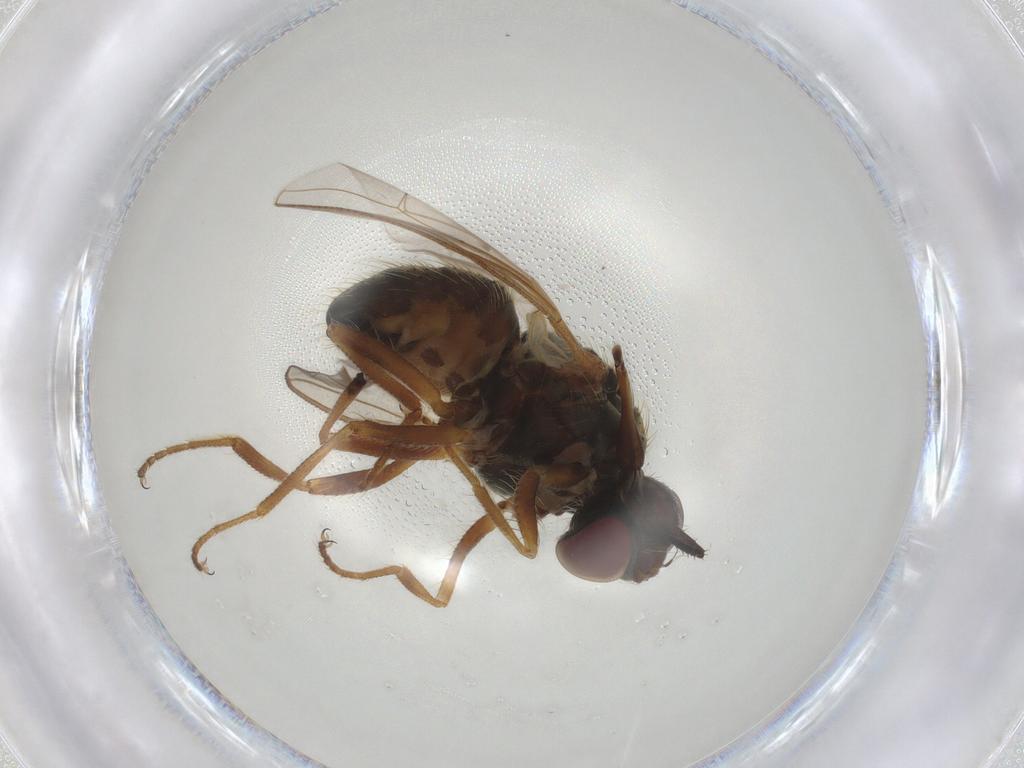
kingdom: Animalia
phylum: Arthropoda
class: Insecta
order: Diptera
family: Muscidae
